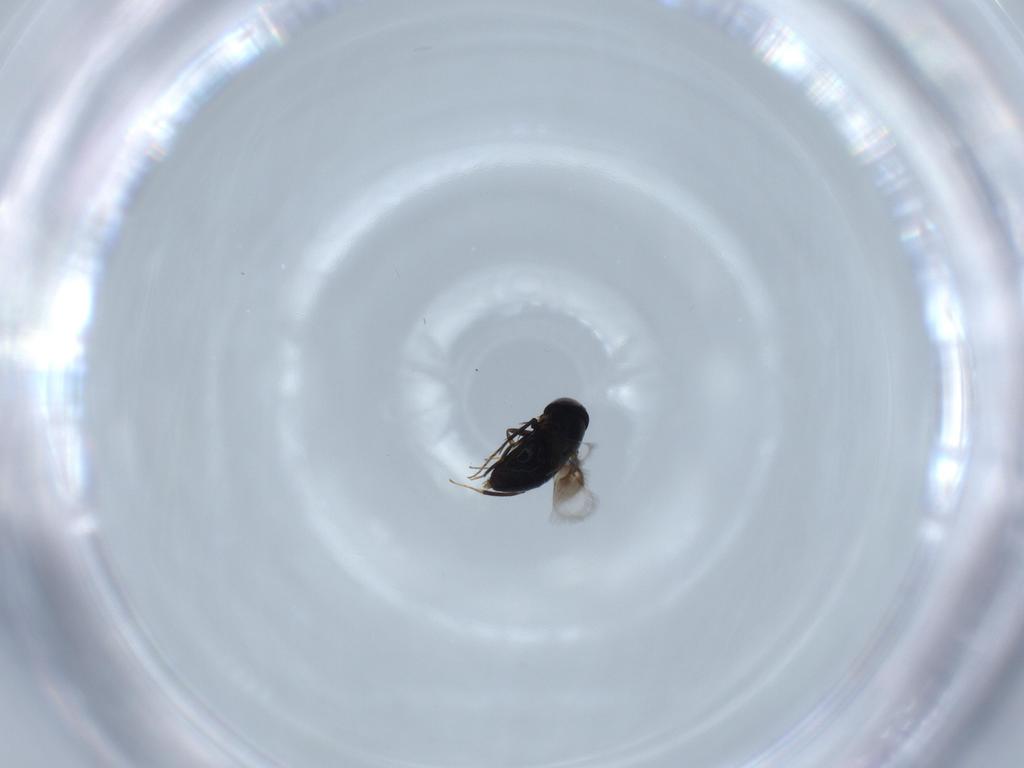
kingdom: Animalia
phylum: Arthropoda
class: Insecta
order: Hymenoptera
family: Signiphoridae
